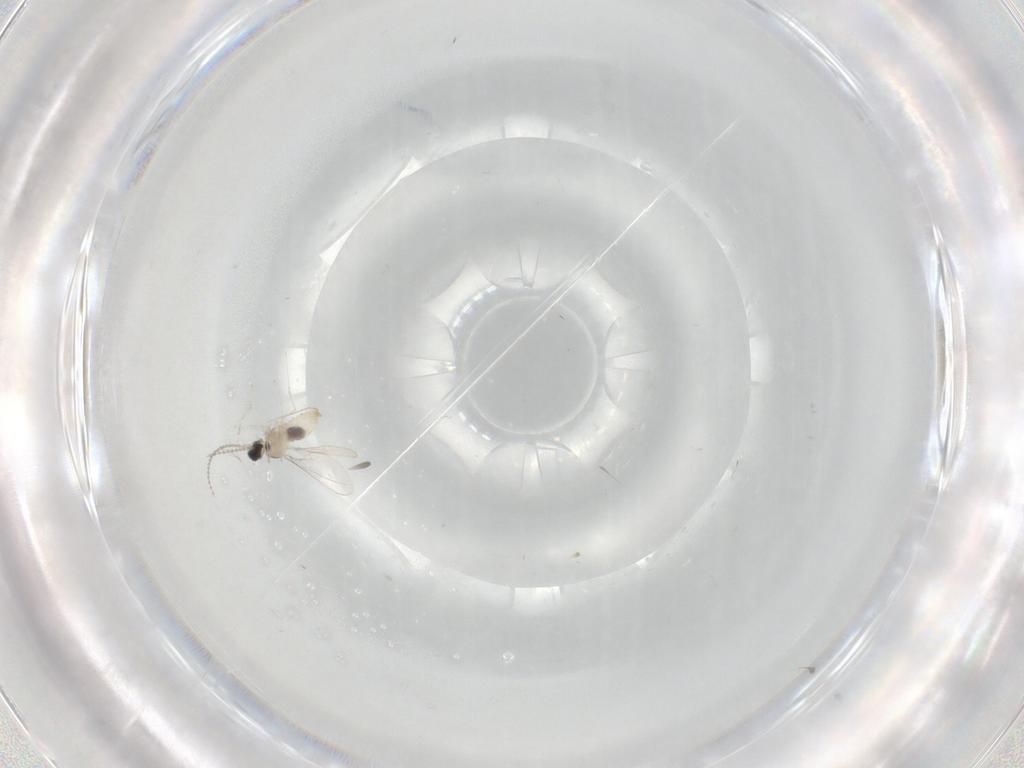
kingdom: Animalia
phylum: Arthropoda
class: Insecta
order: Diptera
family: Cecidomyiidae
